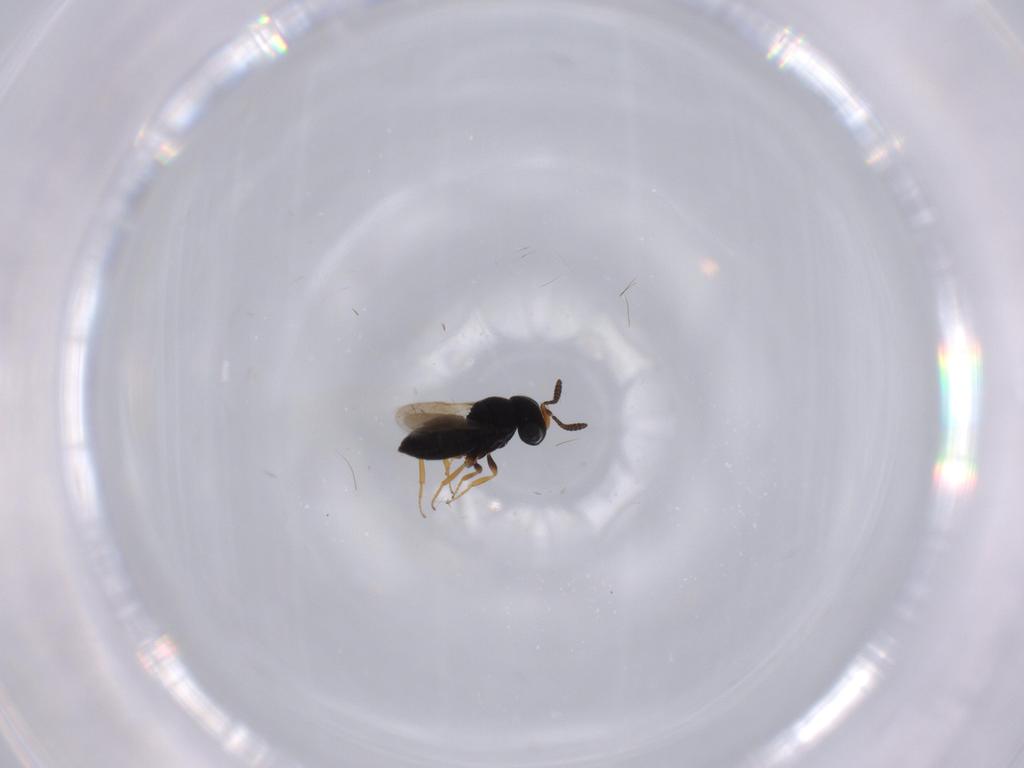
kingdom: Animalia
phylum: Arthropoda
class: Insecta
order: Hymenoptera
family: Scelionidae
